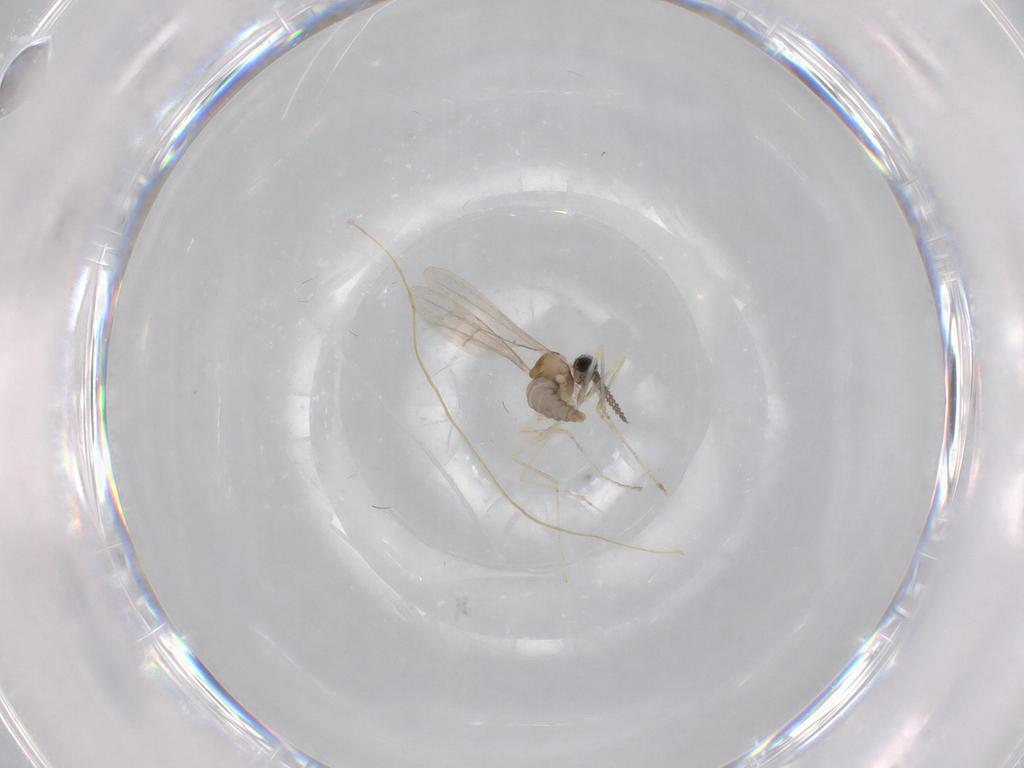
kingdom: Animalia
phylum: Arthropoda
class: Insecta
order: Diptera
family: Cecidomyiidae
